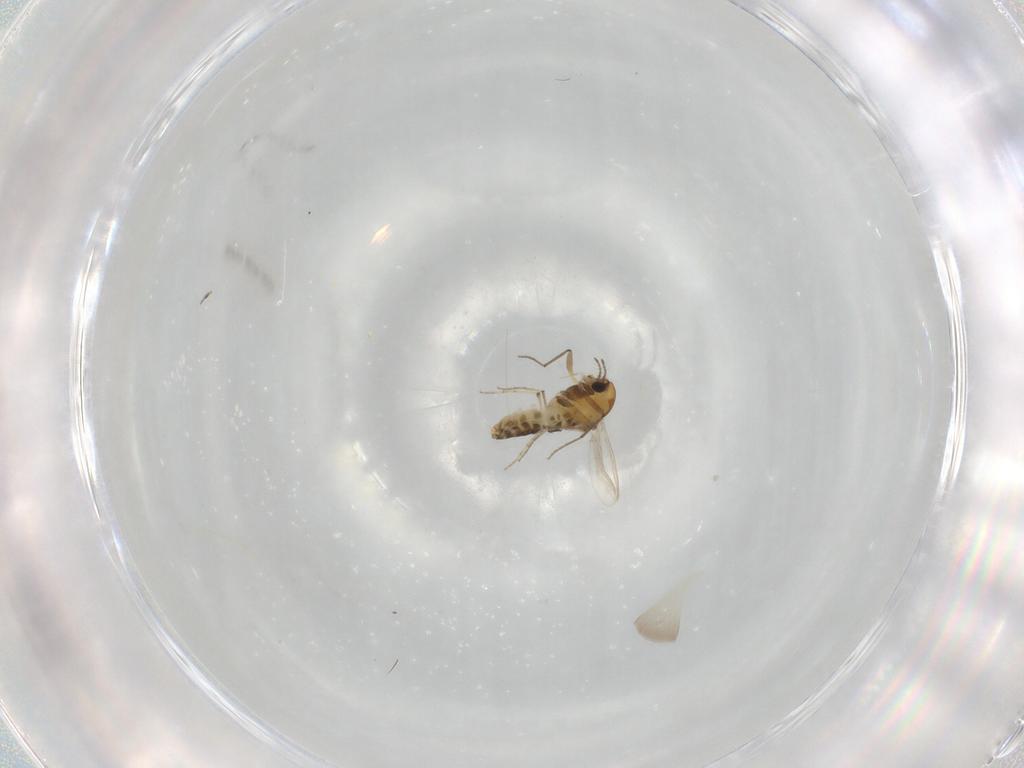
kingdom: Animalia
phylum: Arthropoda
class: Insecta
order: Diptera
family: Chironomidae
